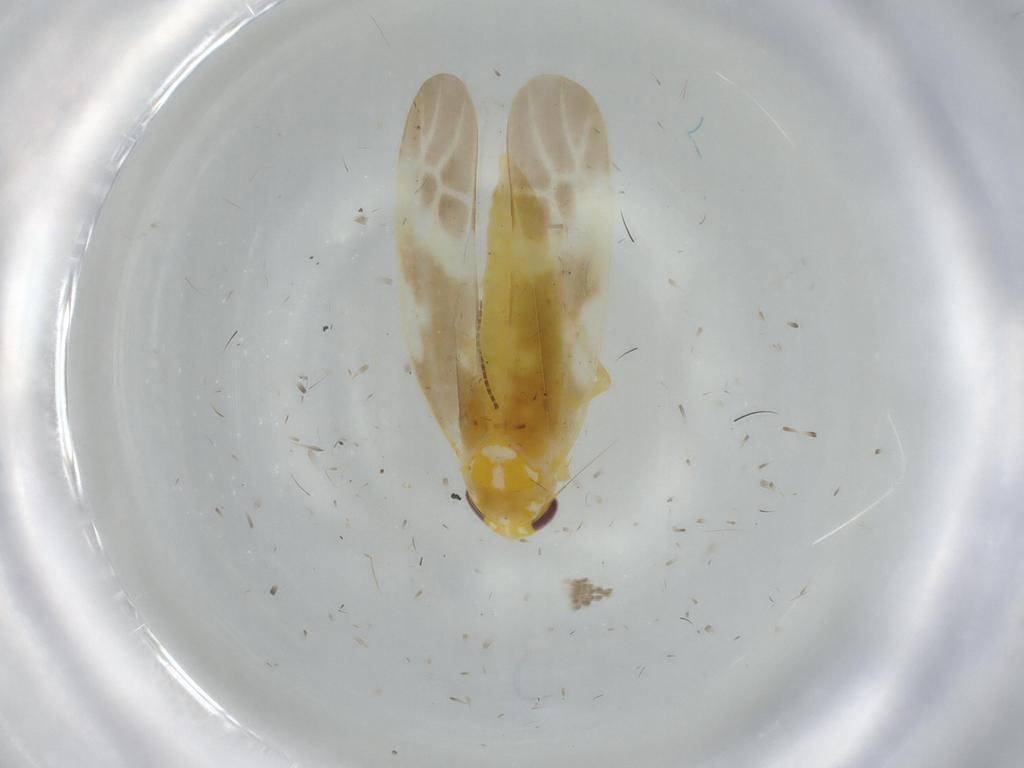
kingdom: Animalia
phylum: Arthropoda
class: Insecta
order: Hemiptera
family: Cicadellidae
